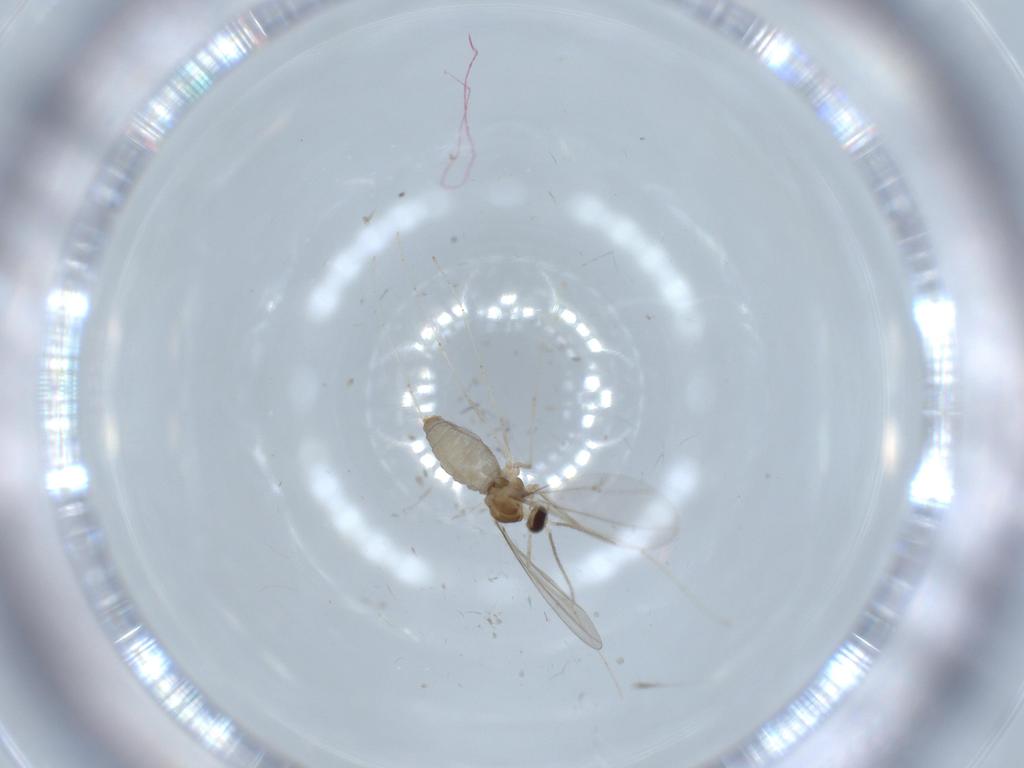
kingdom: Animalia
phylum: Arthropoda
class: Insecta
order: Diptera
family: Cecidomyiidae
